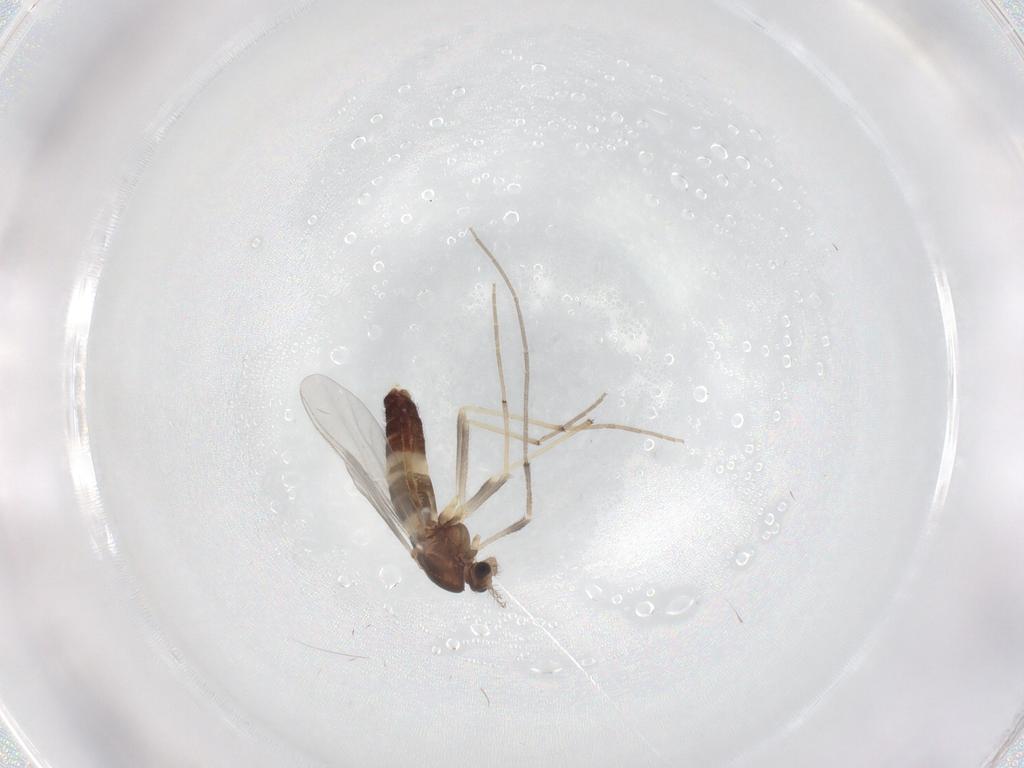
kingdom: Animalia
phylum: Arthropoda
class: Insecta
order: Diptera
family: Chironomidae
